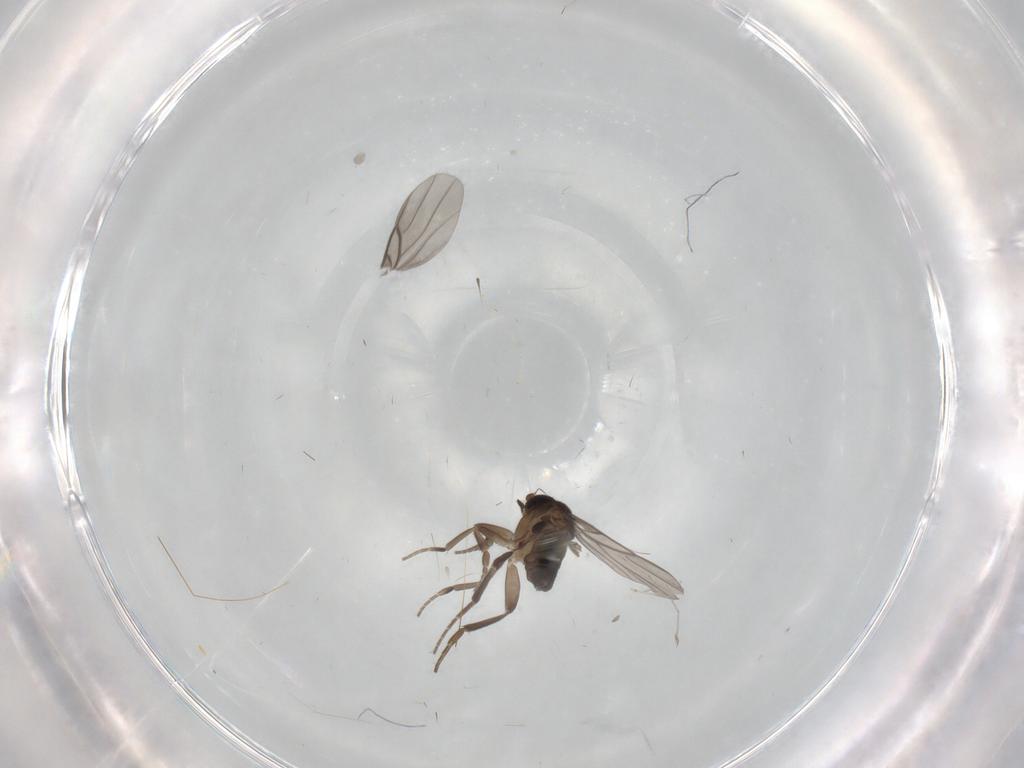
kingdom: Animalia
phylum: Arthropoda
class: Insecta
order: Diptera
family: Phoridae
